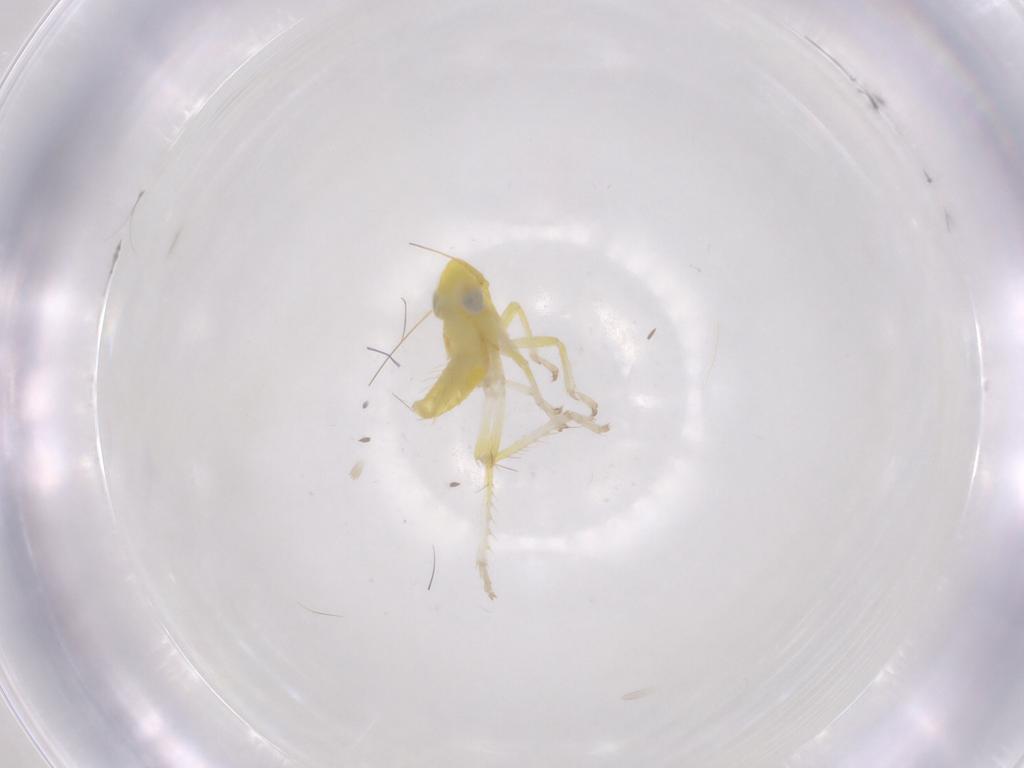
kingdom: Animalia
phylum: Arthropoda
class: Insecta
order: Hemiptera
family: Cicadellidae
